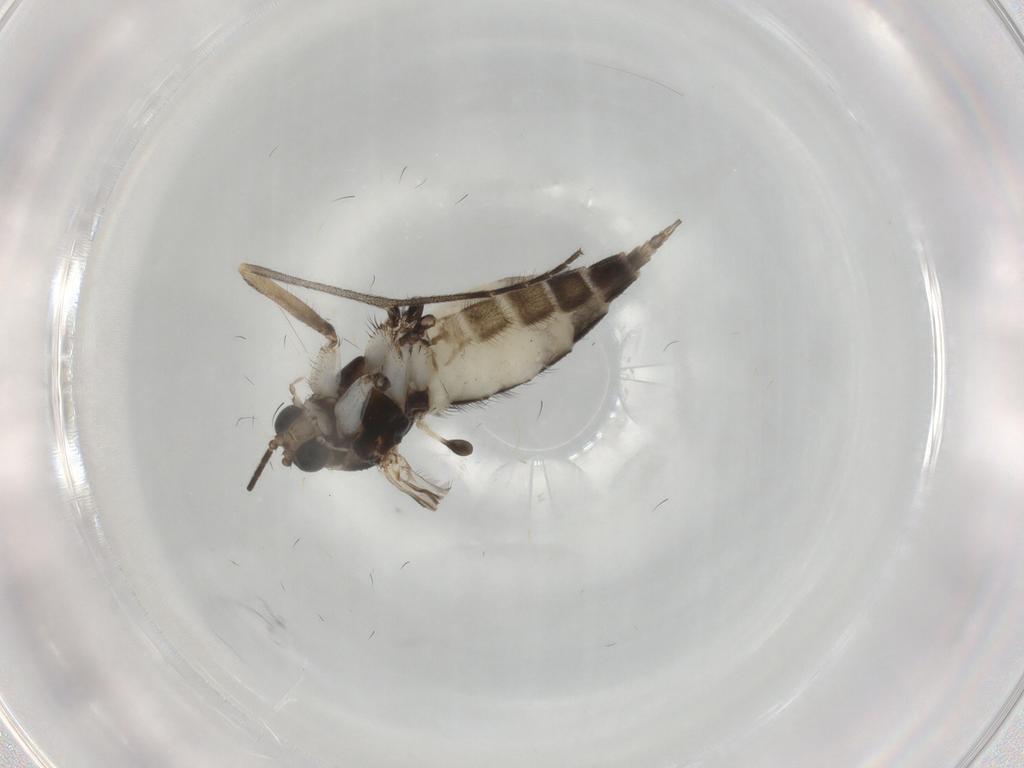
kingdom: Animalia
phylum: Arthropoda
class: Insecta
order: Diptera
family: Sciaridae
